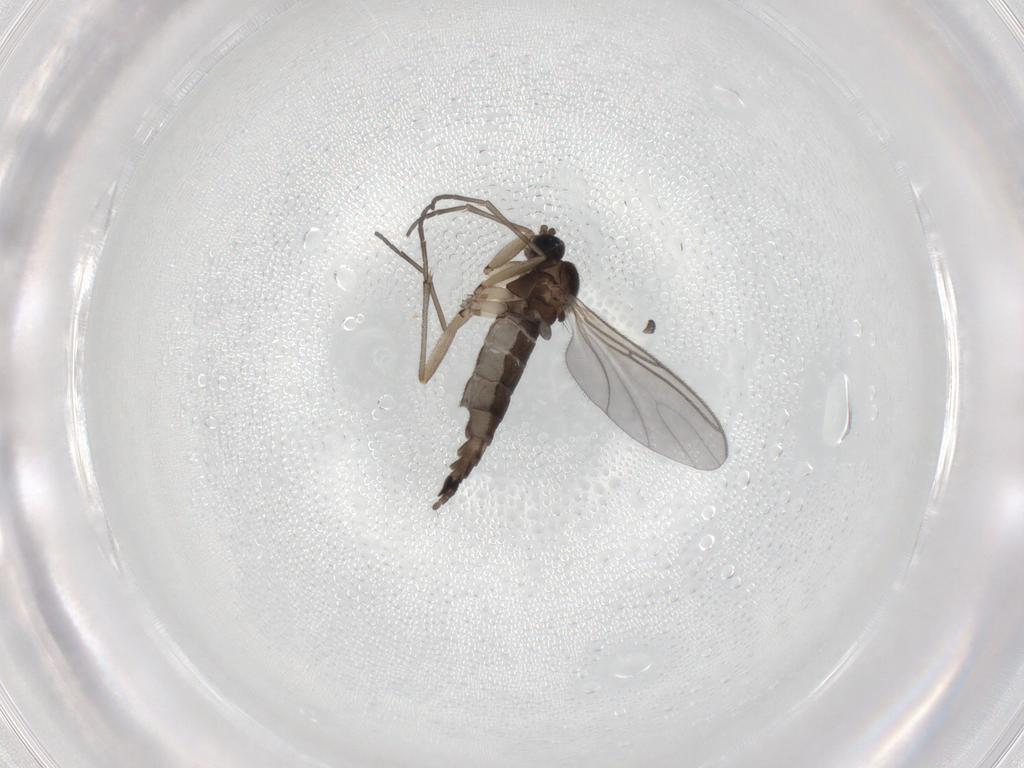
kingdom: Animalia
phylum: Arthropoda
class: Insecta
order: Diptera
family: Sciaridae
